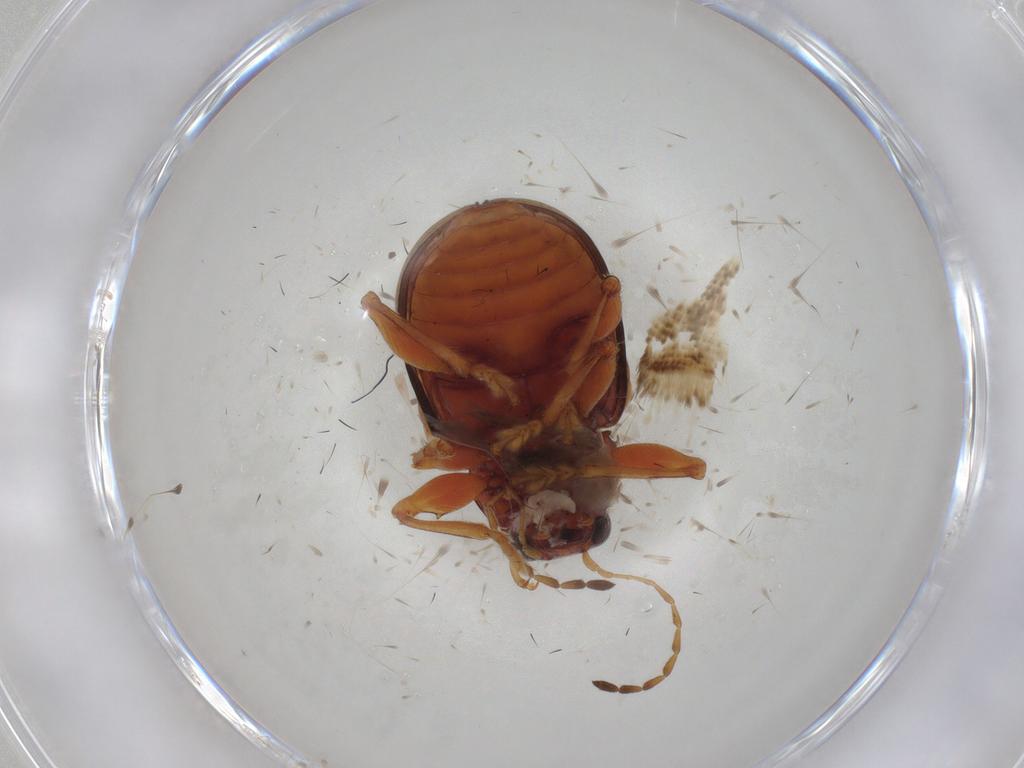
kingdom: Animalia
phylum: Arthropoda
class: Insecta
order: Coleoptera
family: Chrysomelidae
